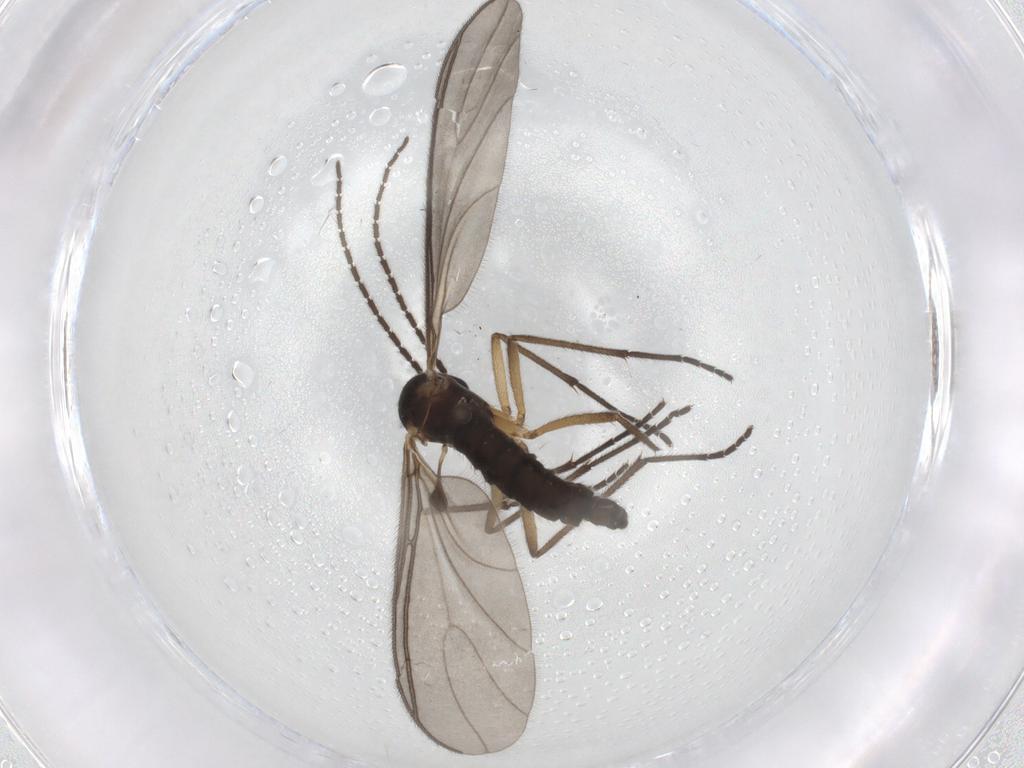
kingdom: Animalia
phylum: Arthropoda
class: Insecta
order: Diptera
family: Sciaridae
